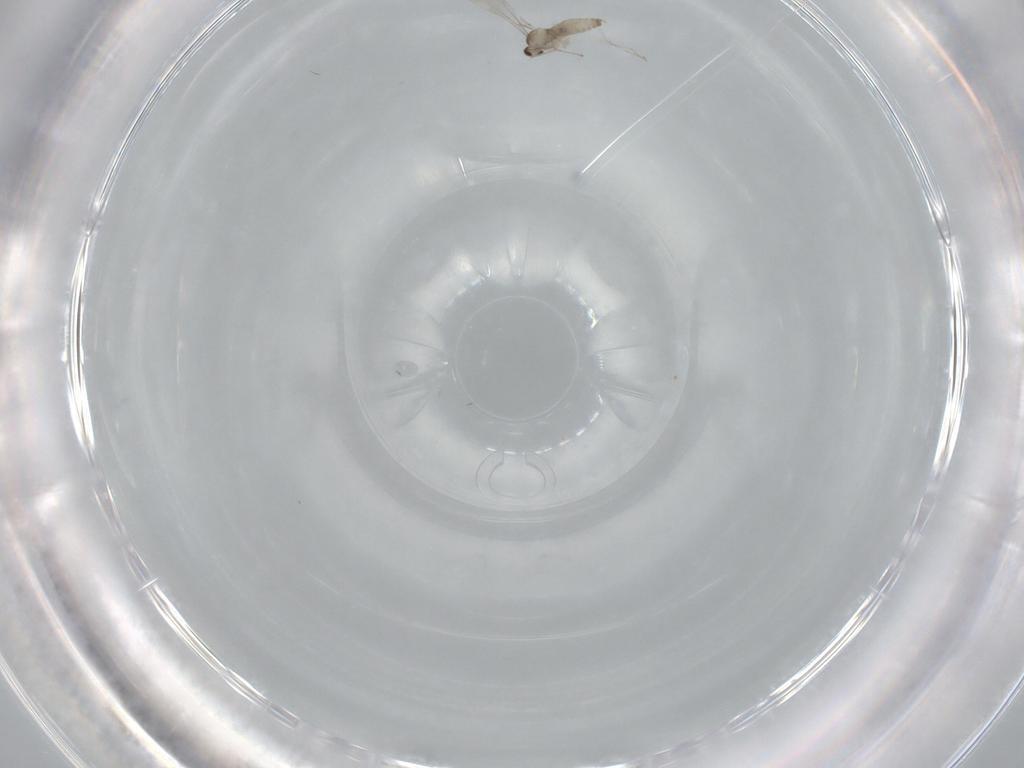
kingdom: Animalia
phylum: Arthropoda
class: Insecta
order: Diptera
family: Cecidomyiidae
